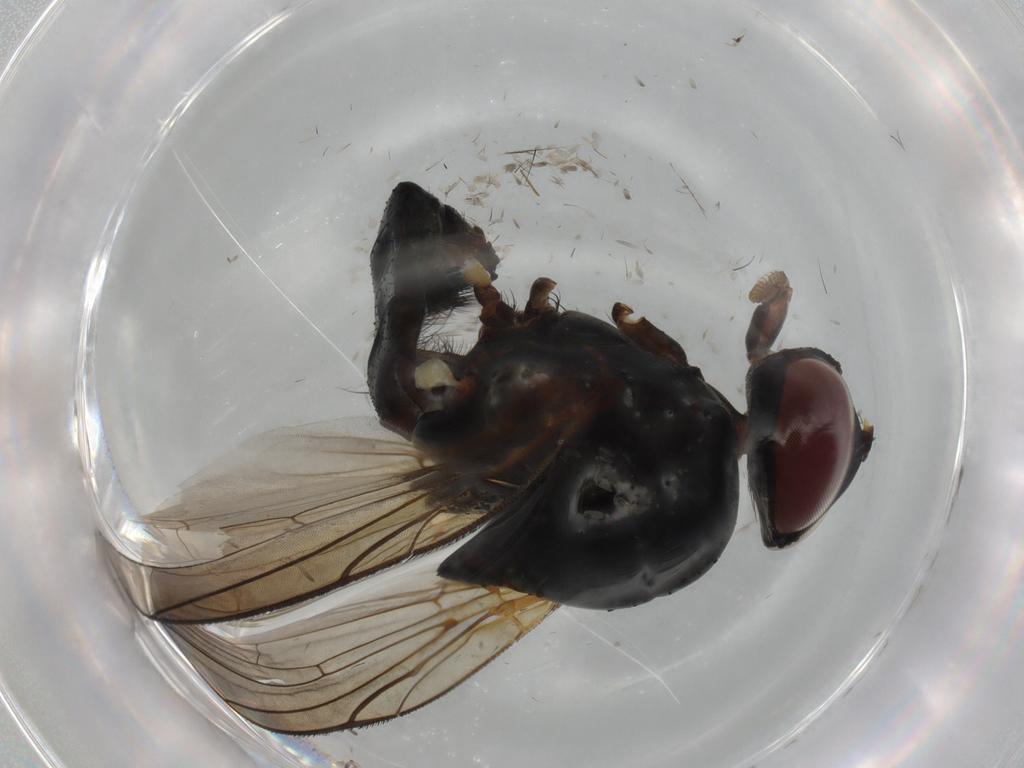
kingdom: Animalia
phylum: Arthropoda
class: Insecta
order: Diptera
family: Anthomyiidae
